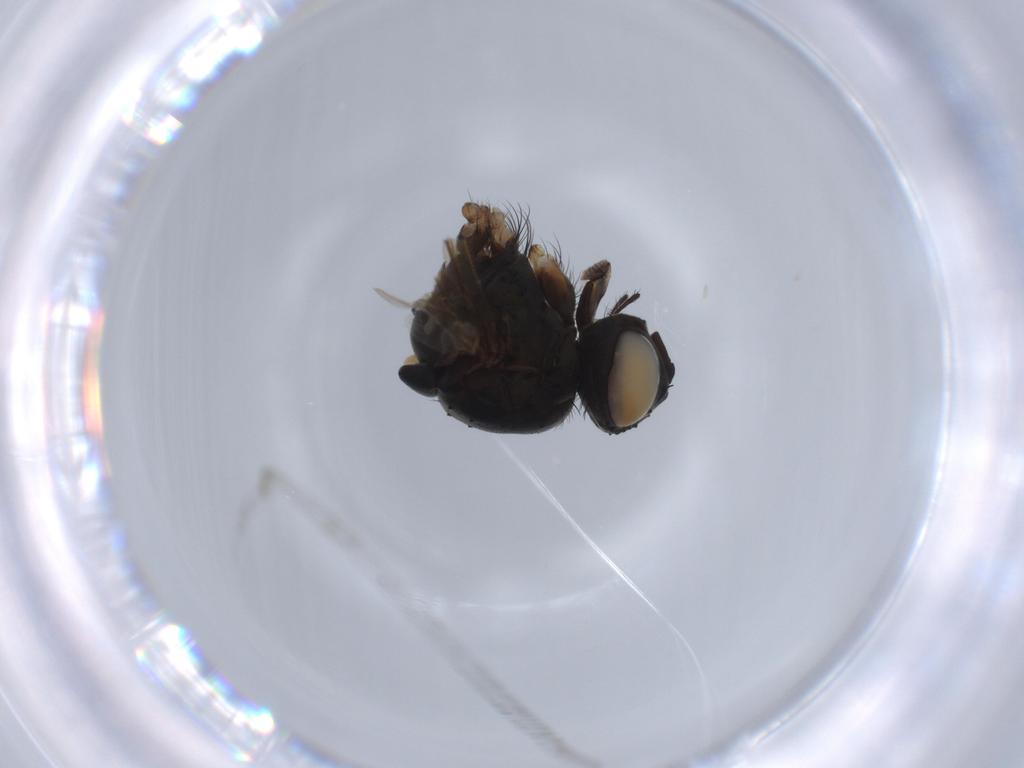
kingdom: Animalia
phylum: Arthropoda
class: Insecta
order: Diptera
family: Muscidae
